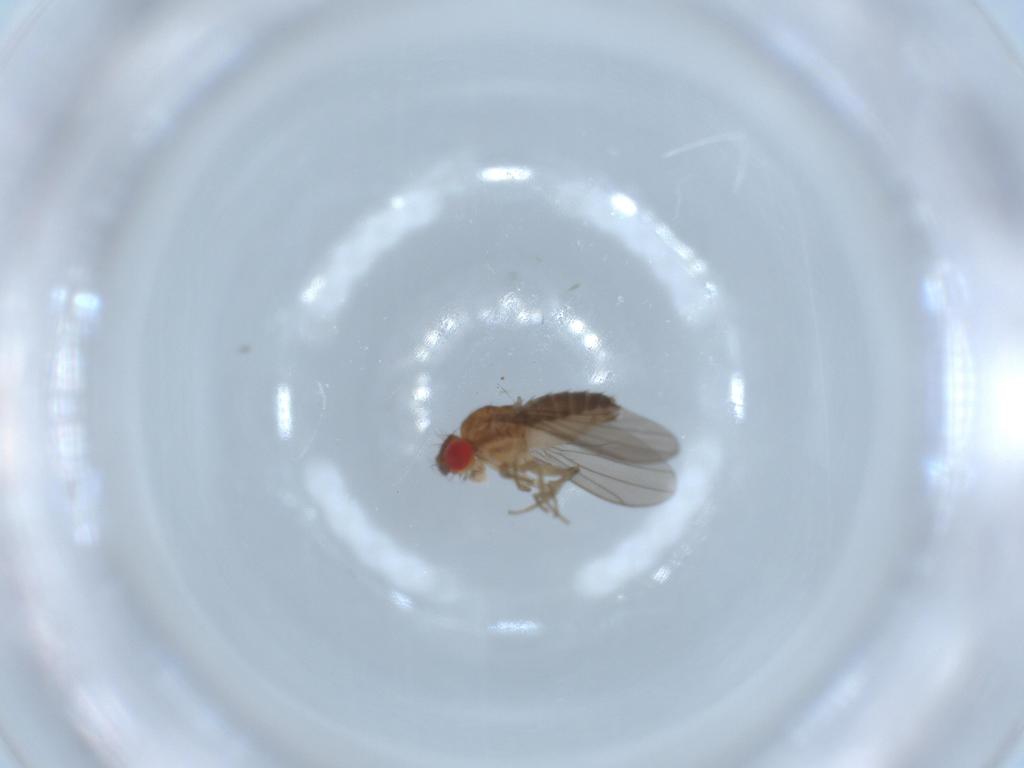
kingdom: Animalia
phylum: Arthropoda
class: Insecta
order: Diptera
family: Drosophilidae
